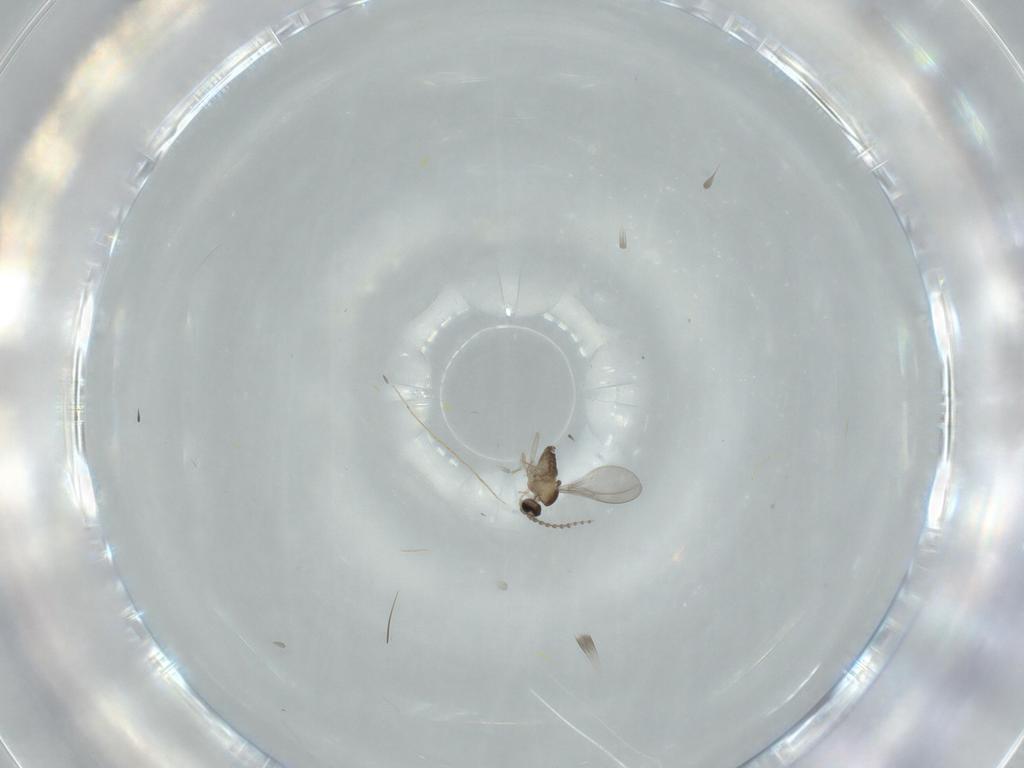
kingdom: Animalia
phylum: Arthropoda
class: Insecta
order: Diptera
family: Cecidomyiidae
